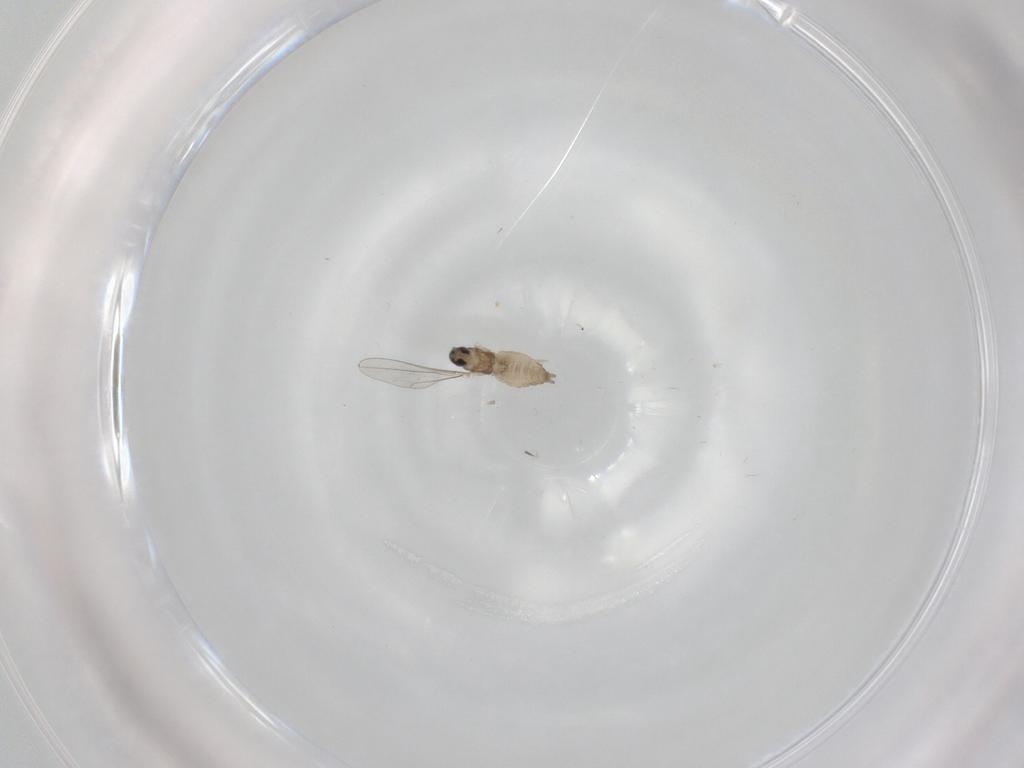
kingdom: Animalia
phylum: Arthropoda
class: Insecta
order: Diptera
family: Cecidomyiidae
